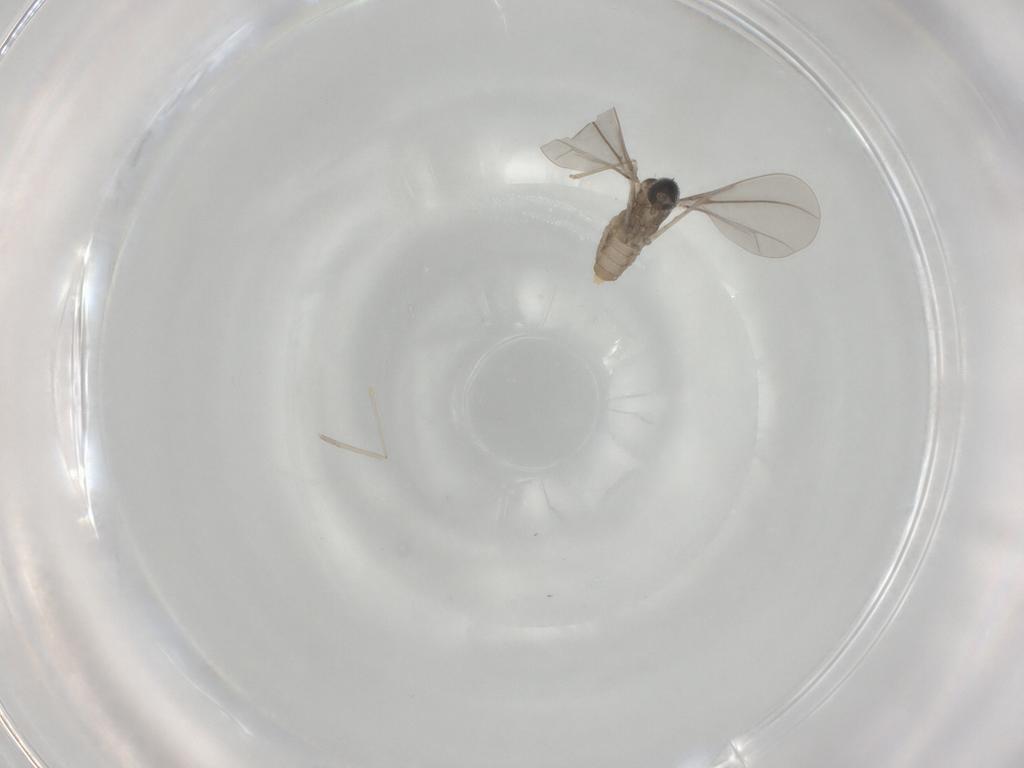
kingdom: Animalia
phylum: Arthropoda
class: Insecta
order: Diptera
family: Cecidomyiidae
